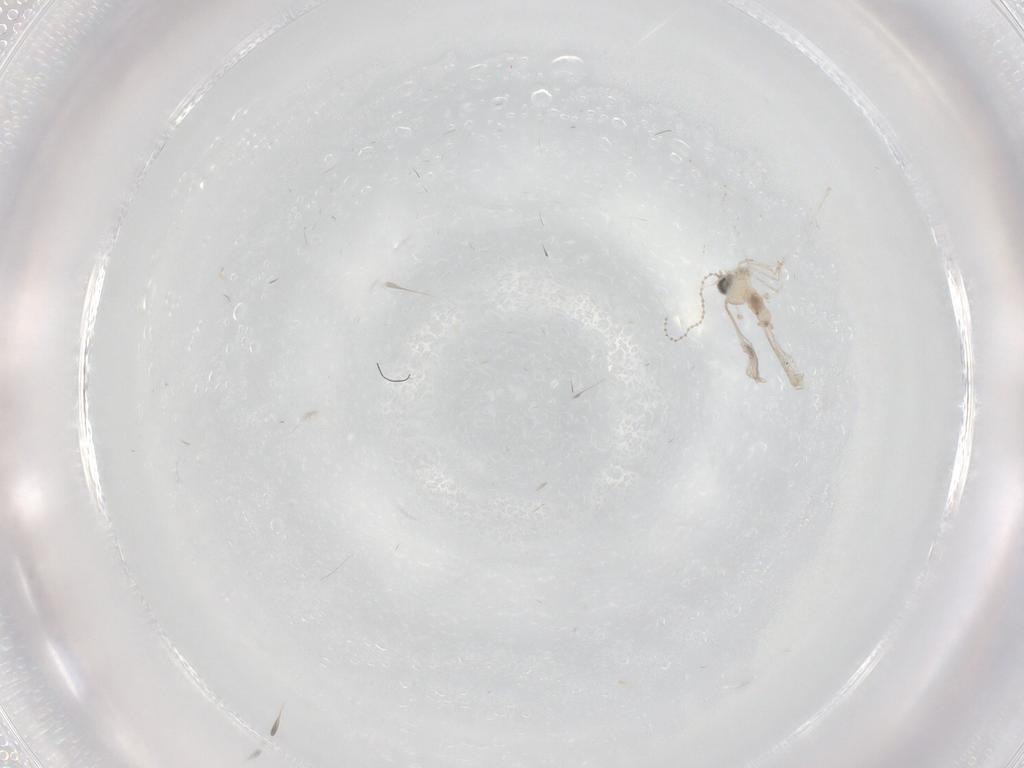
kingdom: Animalia
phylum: Arthropoda
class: Insecta
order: Diptera
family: Cecidomyiidae
